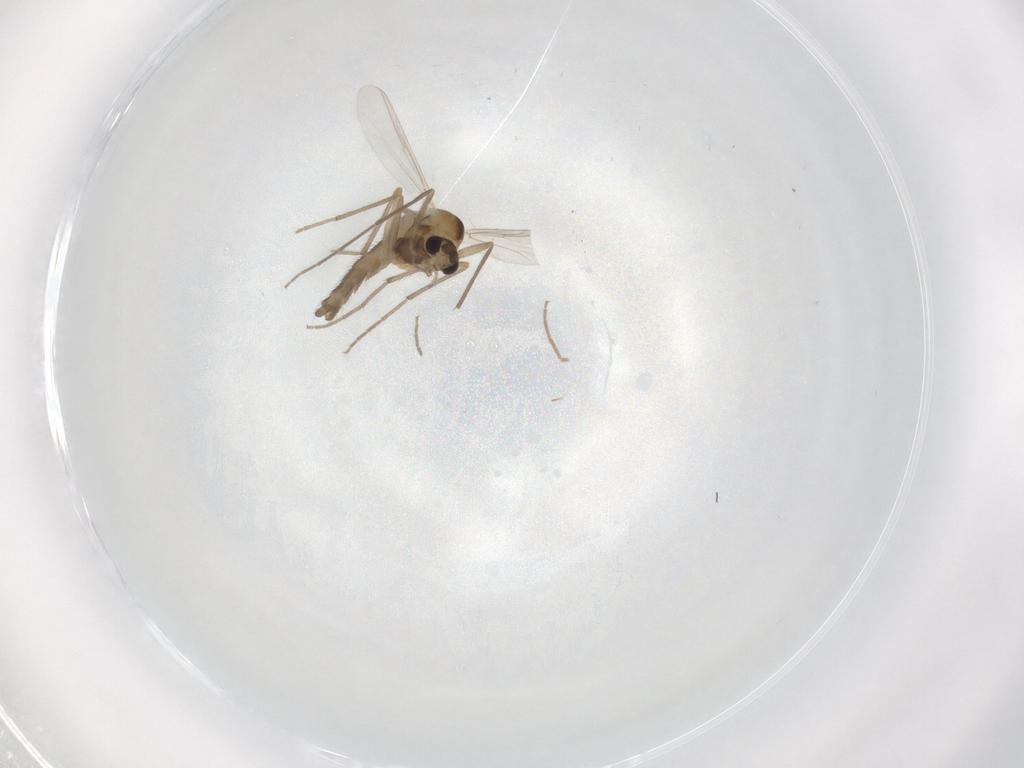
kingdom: Animalia
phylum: Arthropoda
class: Insecta
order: Diptera
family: Chironomidae
